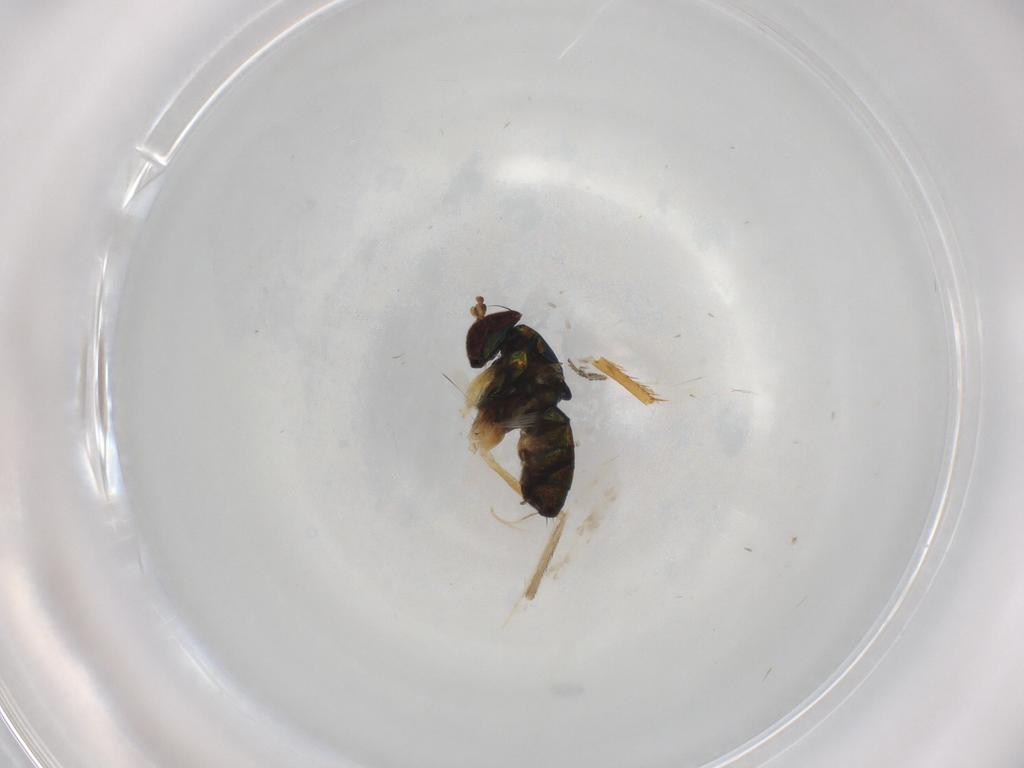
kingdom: Animalia
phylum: Arthropoda
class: Insecta
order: Diptera
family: Dolichopodidae
